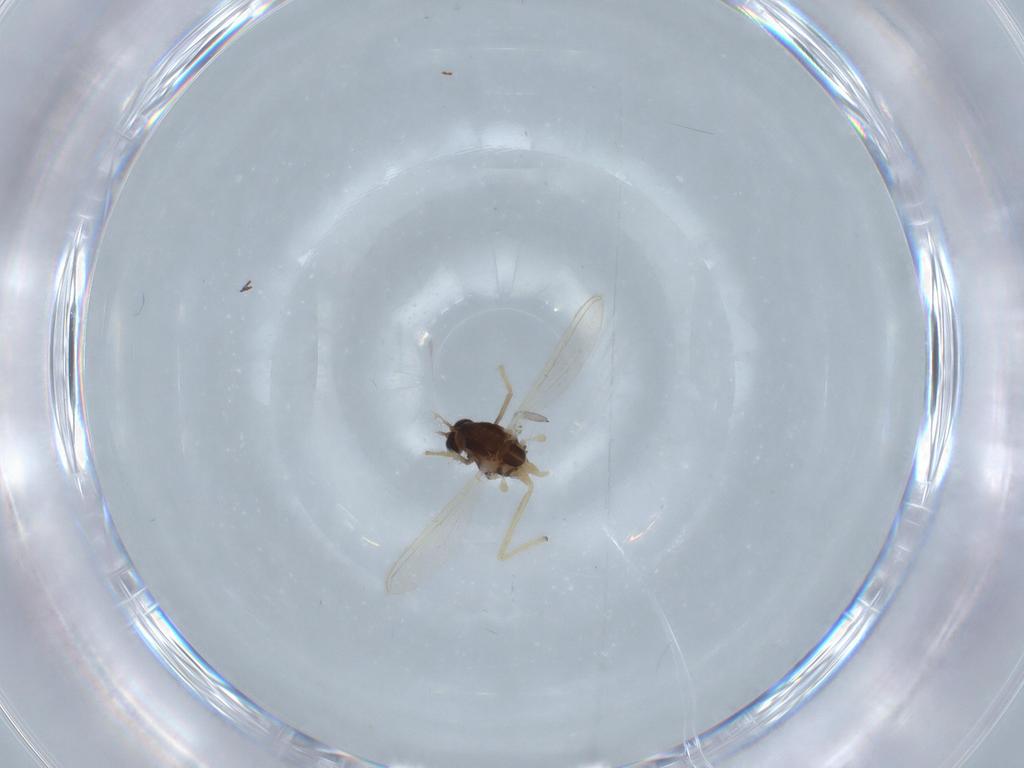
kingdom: Animalia
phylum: Arthropoda
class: Insecta
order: Diptera
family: Chironomidae
